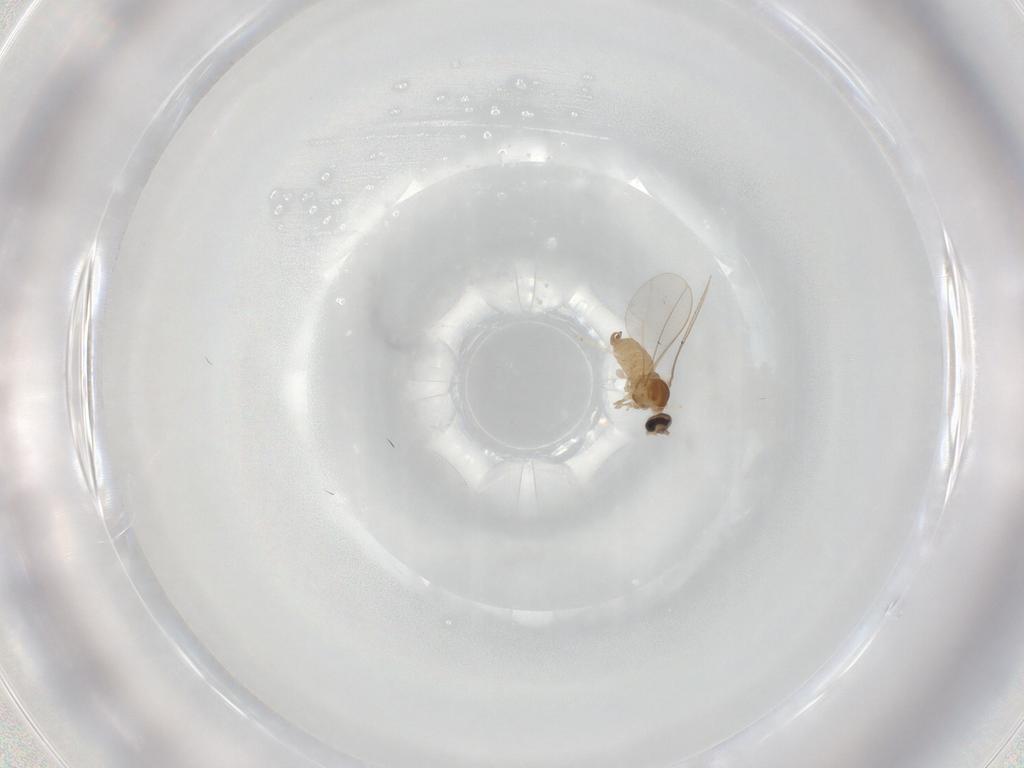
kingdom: Animalia
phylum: Arthropoda
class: Insecta
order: Diptera
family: Cecidomyiidae
